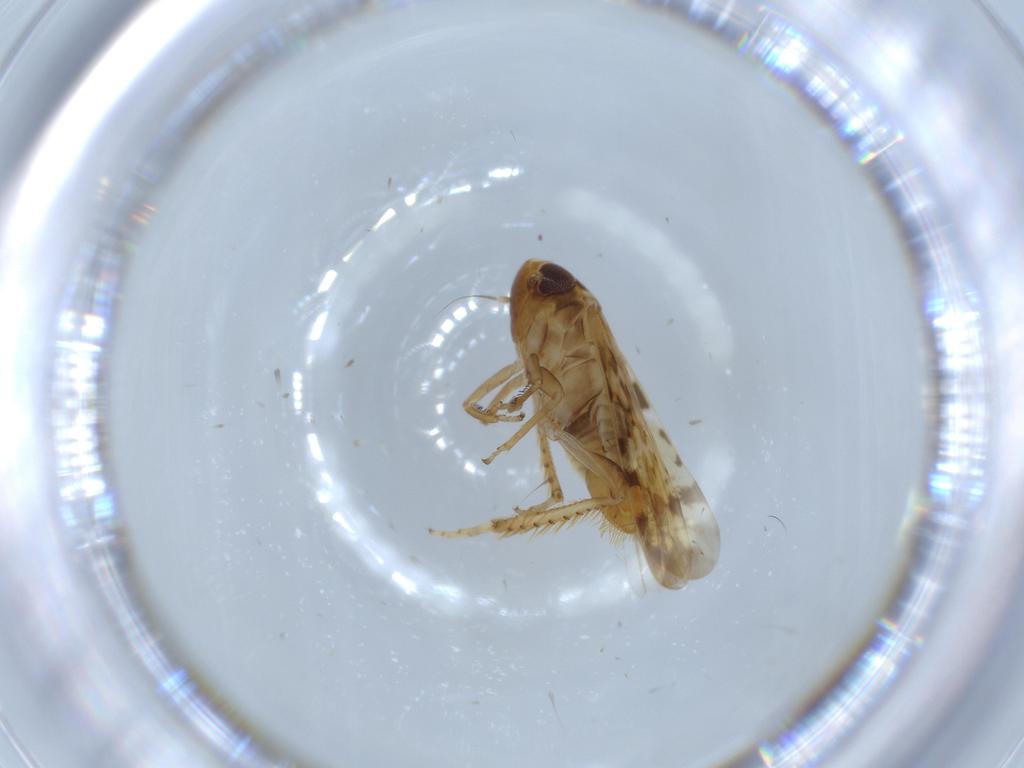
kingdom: Animalia
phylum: Arthropoda
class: Insecta
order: Hemiptera
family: Cicadellidae
